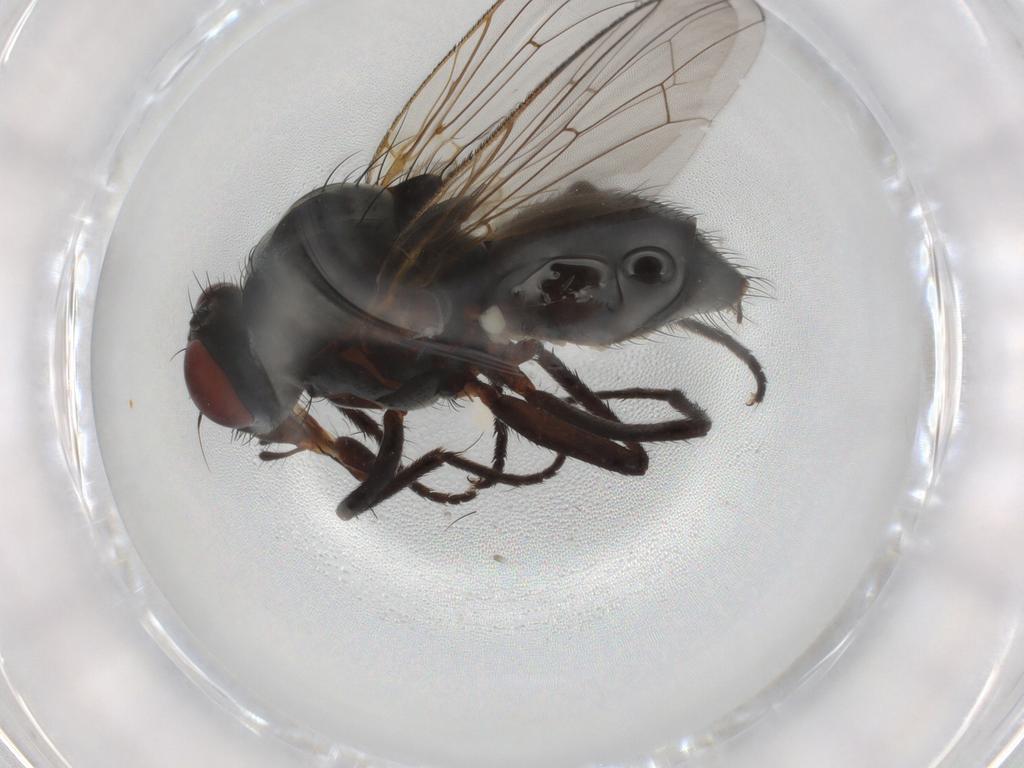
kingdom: Animalia
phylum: Arthropoda
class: Insecta
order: Diptera
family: Anthomyiidae
